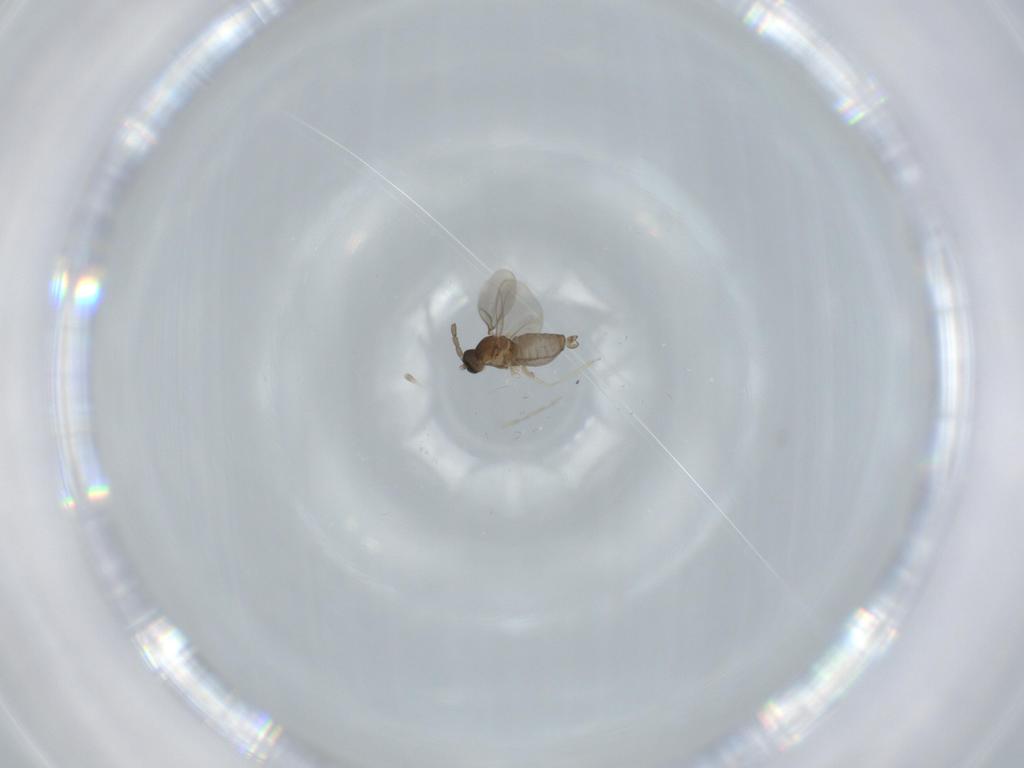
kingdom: Animalia
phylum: Arthropoda
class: Insecta
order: Diptera
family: Sciaridae
